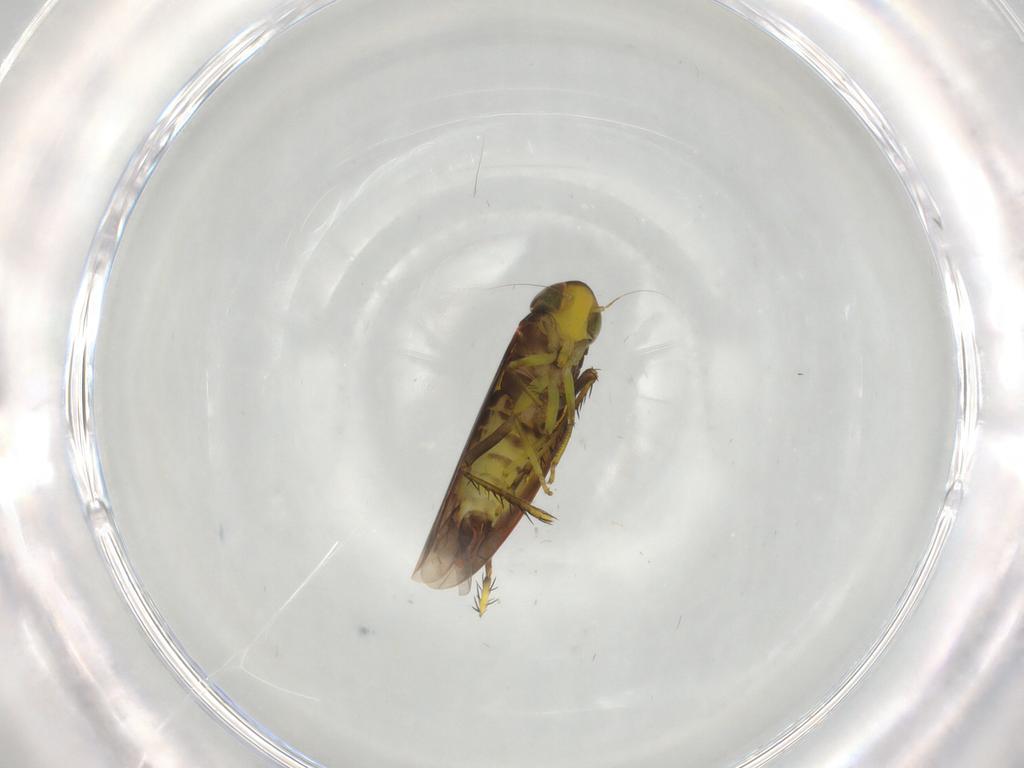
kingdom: Animalia
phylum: Arthropoda
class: Insecta
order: Hemiptera
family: Cicadellidae
